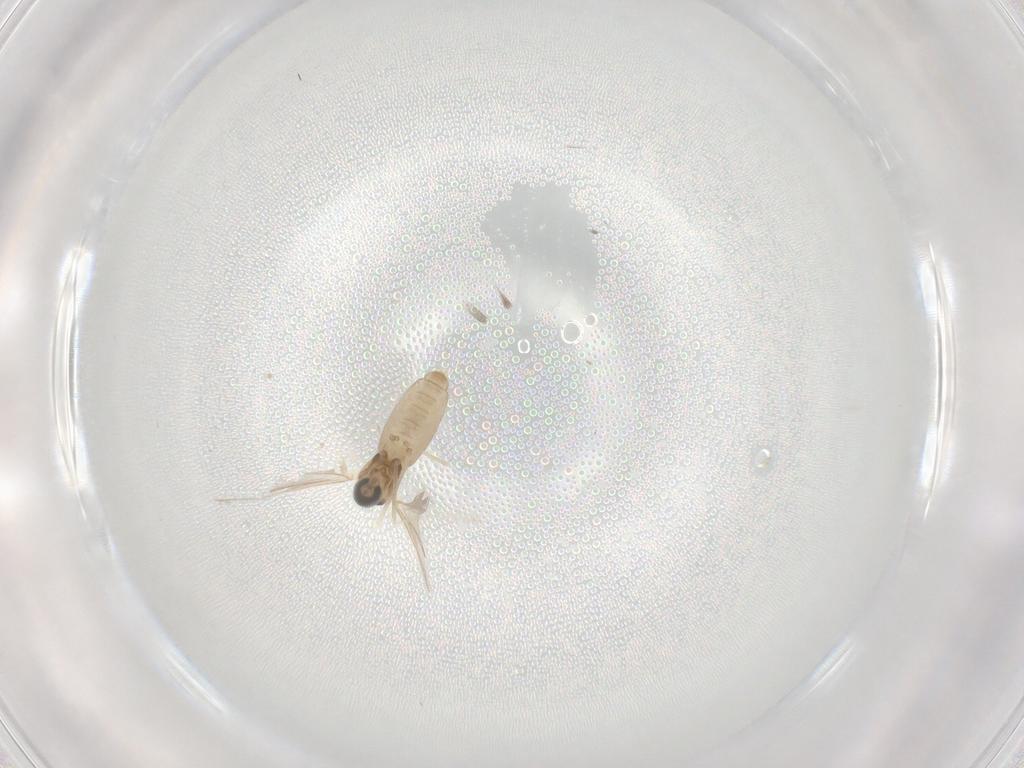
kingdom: Animalia
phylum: Arthropoda
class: Insecta
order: Diptera
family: Cecidomyiidae
